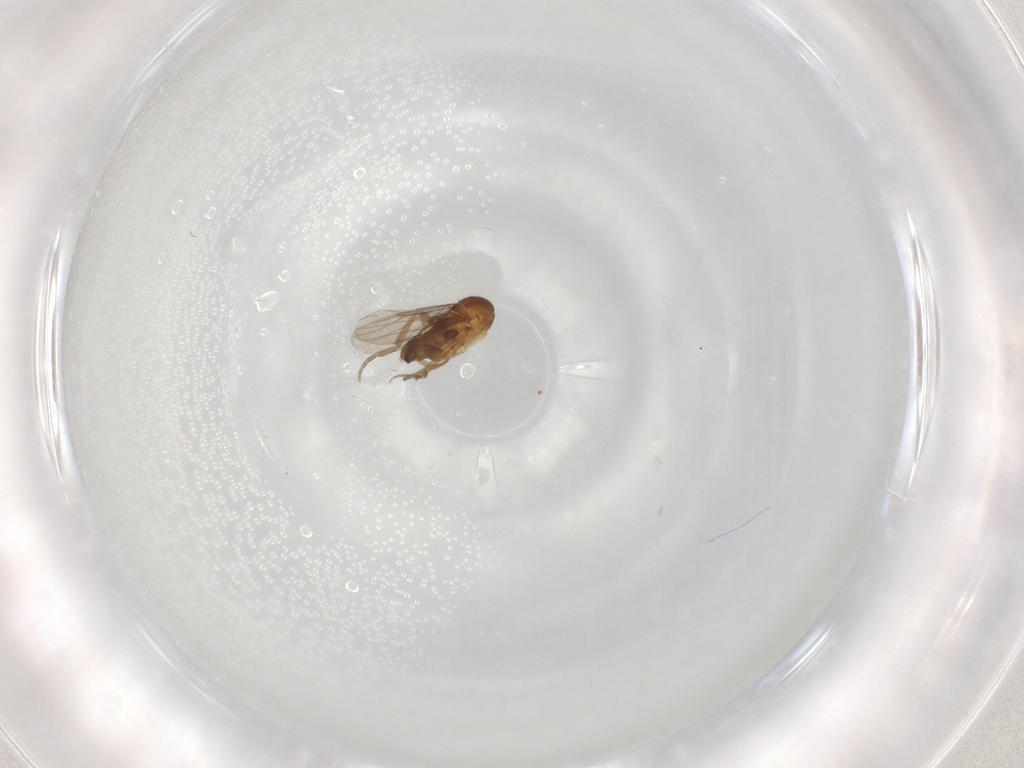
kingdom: Animalia
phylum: Arthropoda
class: Insecta
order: Diptera
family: Phoridae
